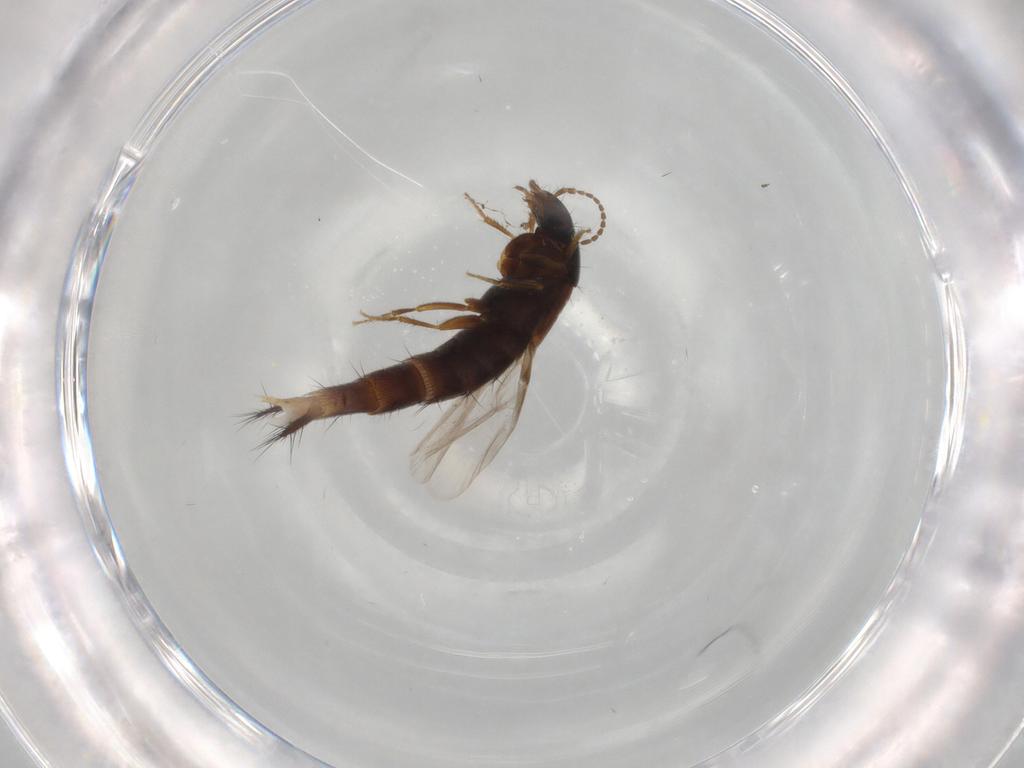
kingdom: Animalia
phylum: Arthropoda
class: Insecta
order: Coleoptera
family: Staphylinidae
